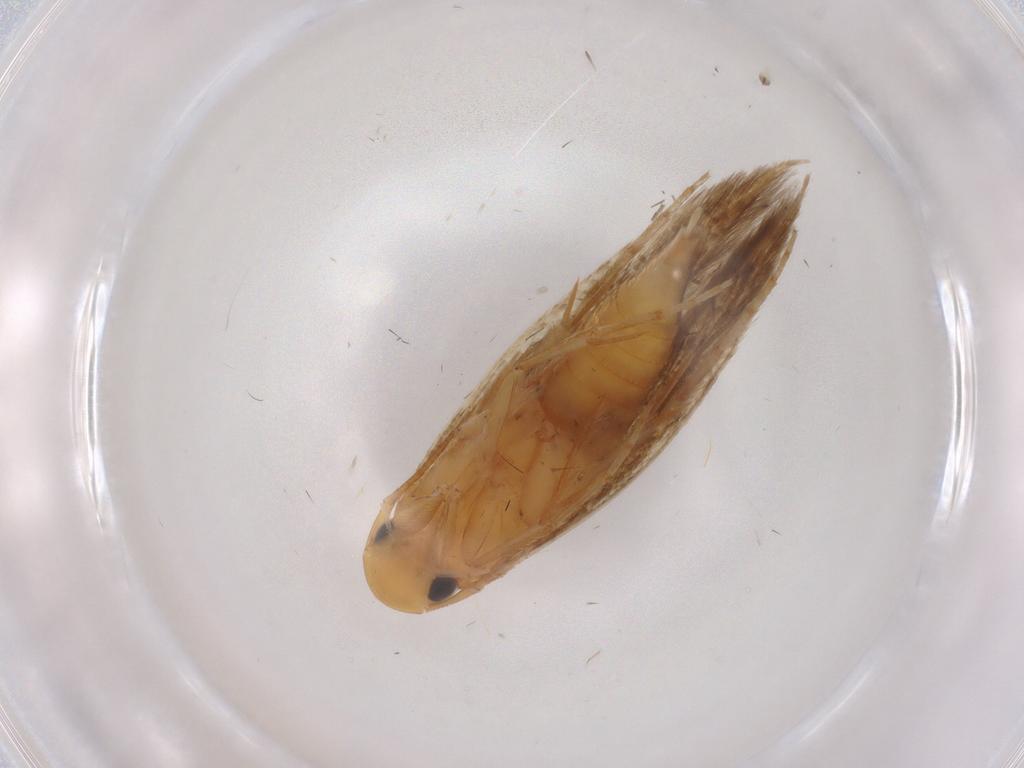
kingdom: Animalia
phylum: Arthropoda
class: Insecta
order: Lepidoptera
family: Tineidae
